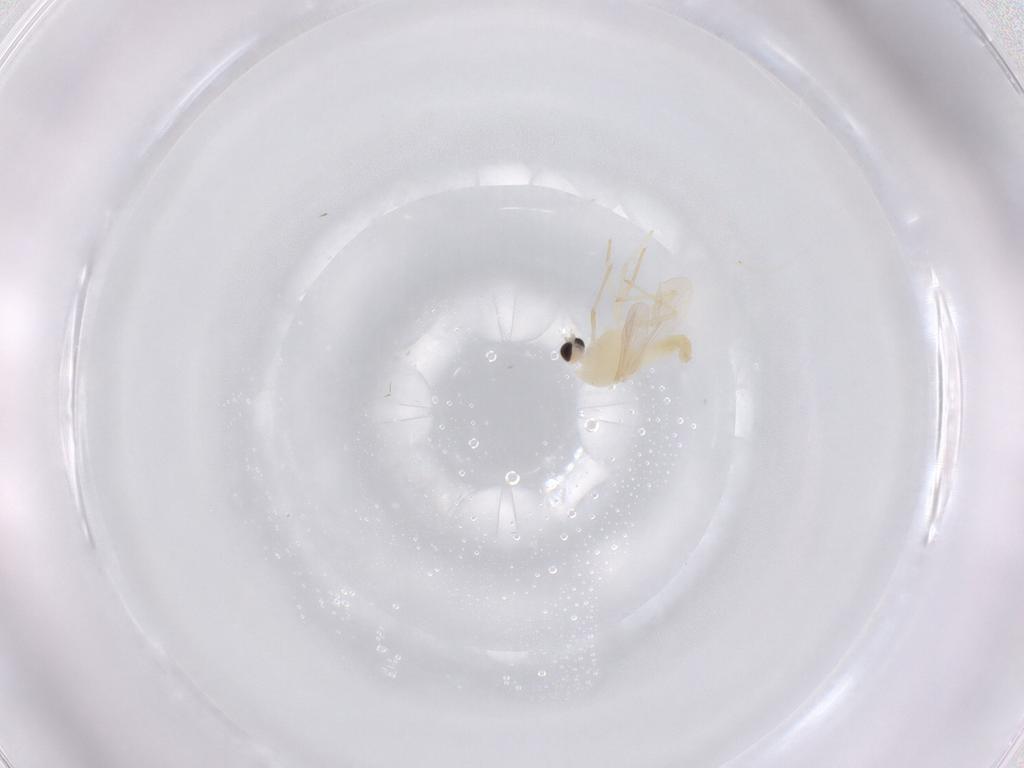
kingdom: Animalia
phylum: Arthropoda
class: Insecta
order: Diptera
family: Chironomidae
